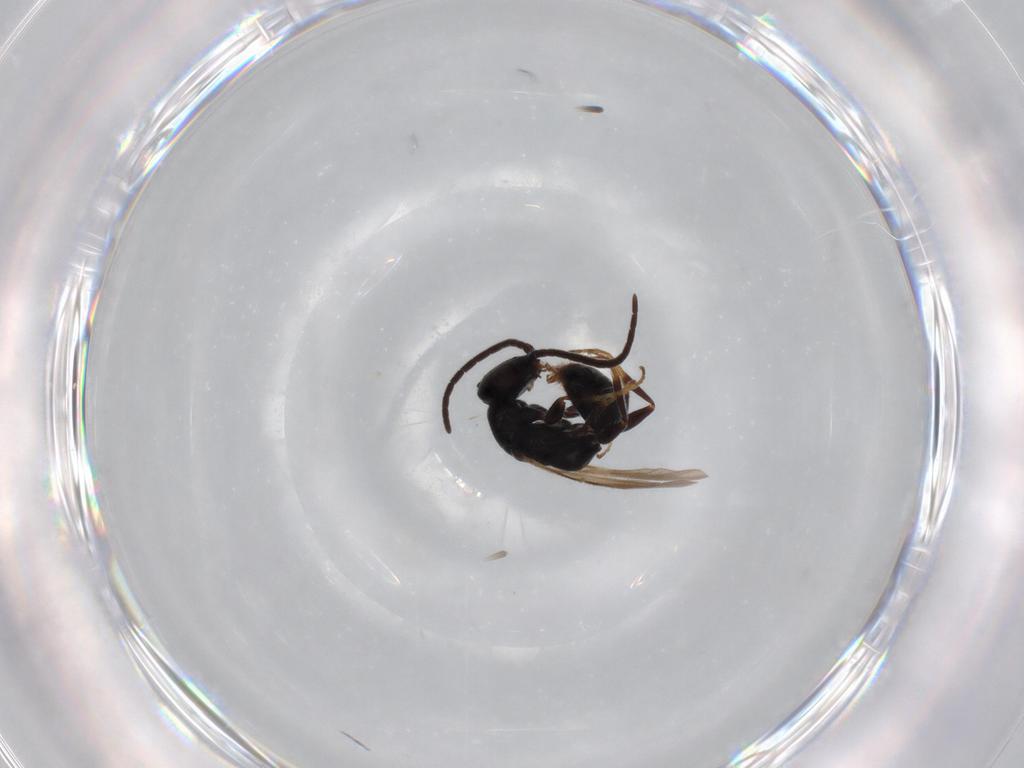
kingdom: Animalia
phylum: Arthropoda
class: Insecta
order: Hymenoptera
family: Bethylidae
